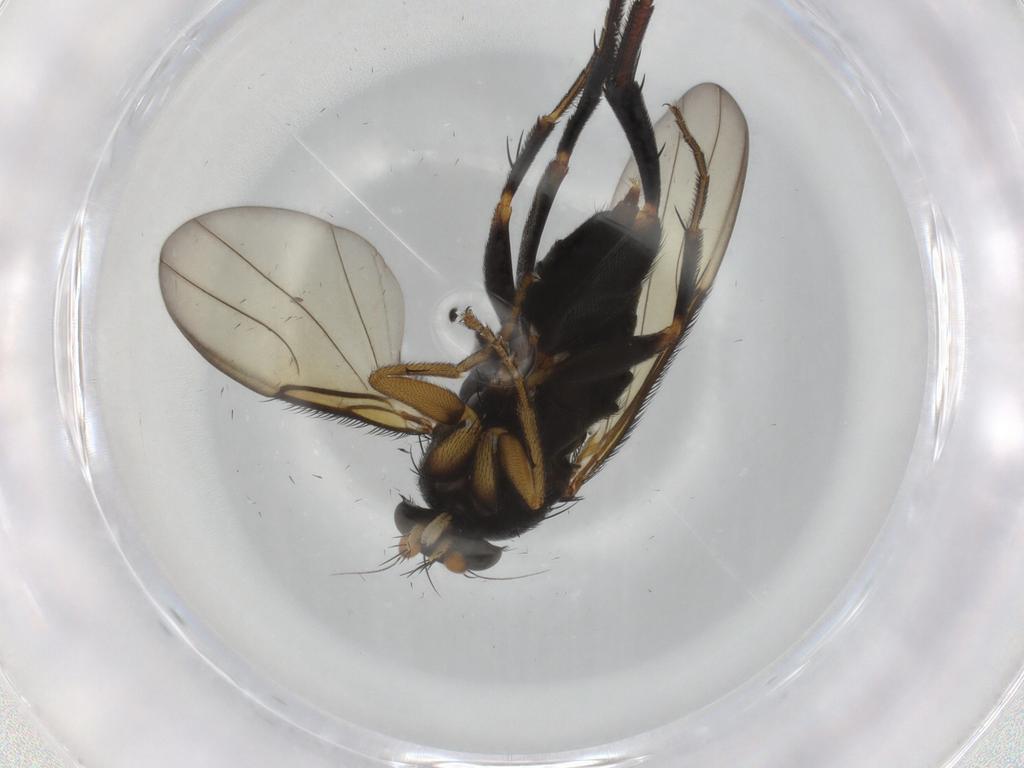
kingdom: Animalia
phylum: Arthropoda
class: Insecta
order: Diptera
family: Phoridae
